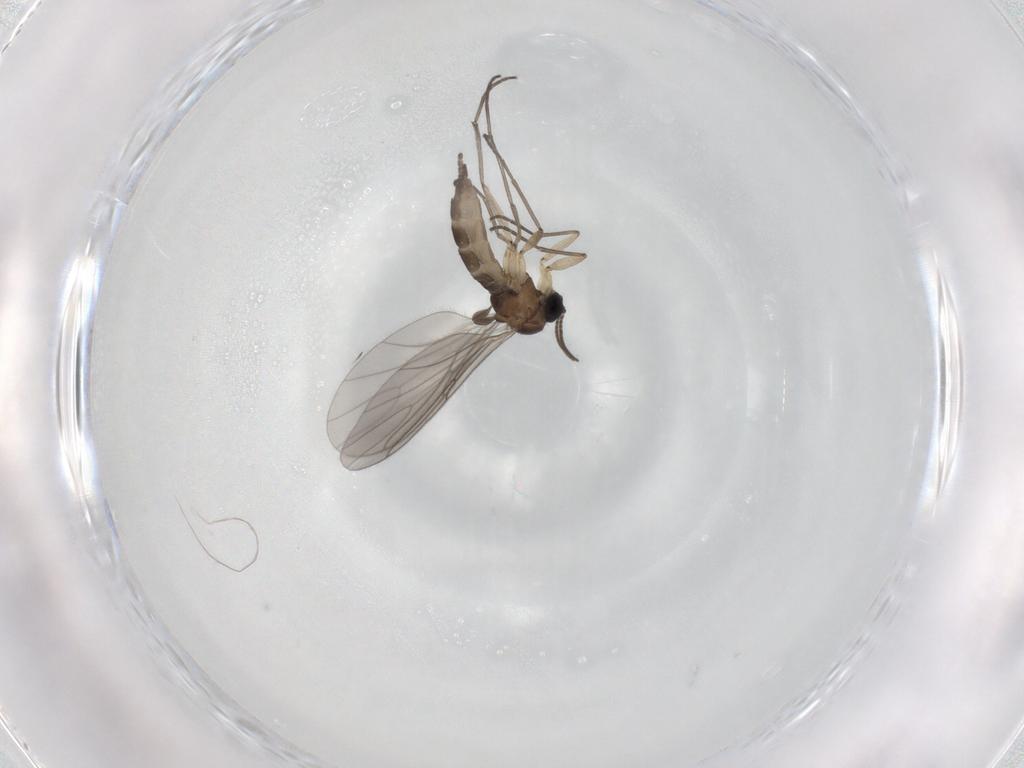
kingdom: Animalia
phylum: Arthropoda
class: Insecta
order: Diptera
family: Sciaridae
